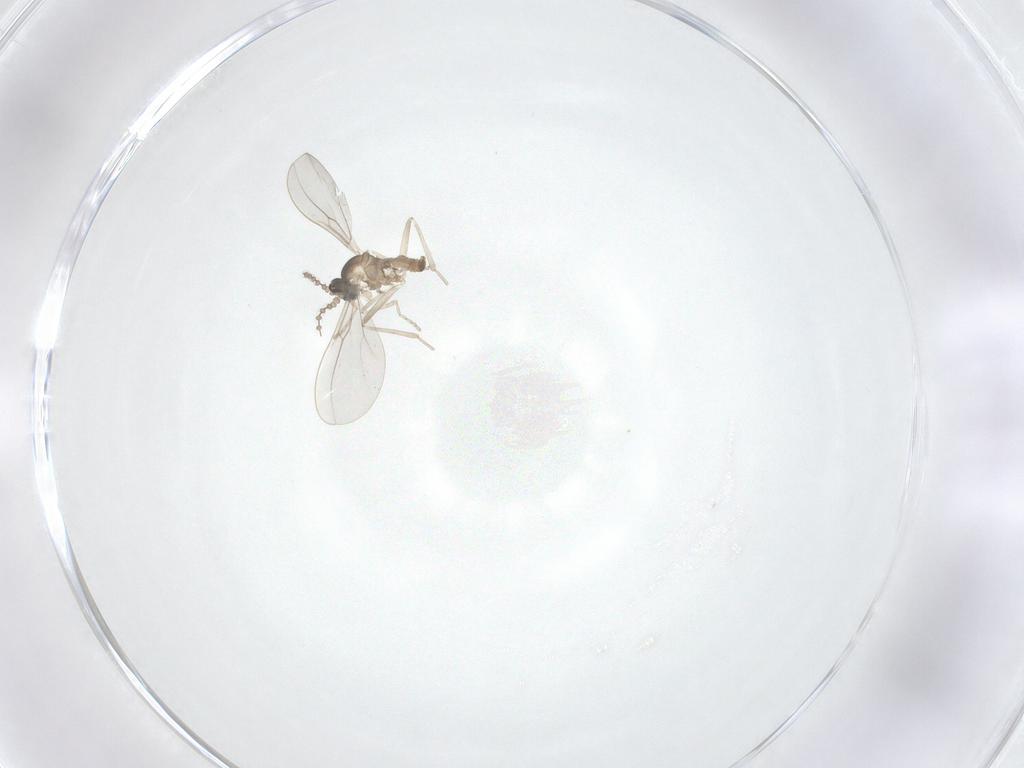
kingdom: Animalia
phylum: Arthropoda
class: Insecta
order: Diptera
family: Cecidomyiidae
